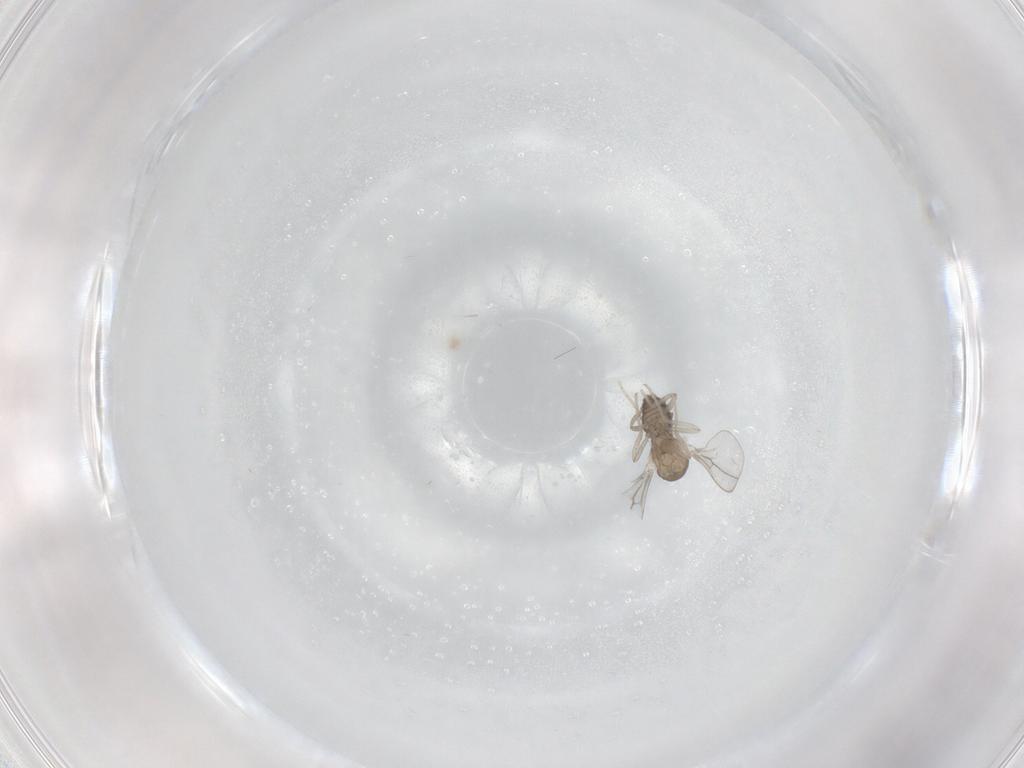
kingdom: Animalia
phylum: Arthropoda
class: Insecta
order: Diptera
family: Cecidomyiidae
